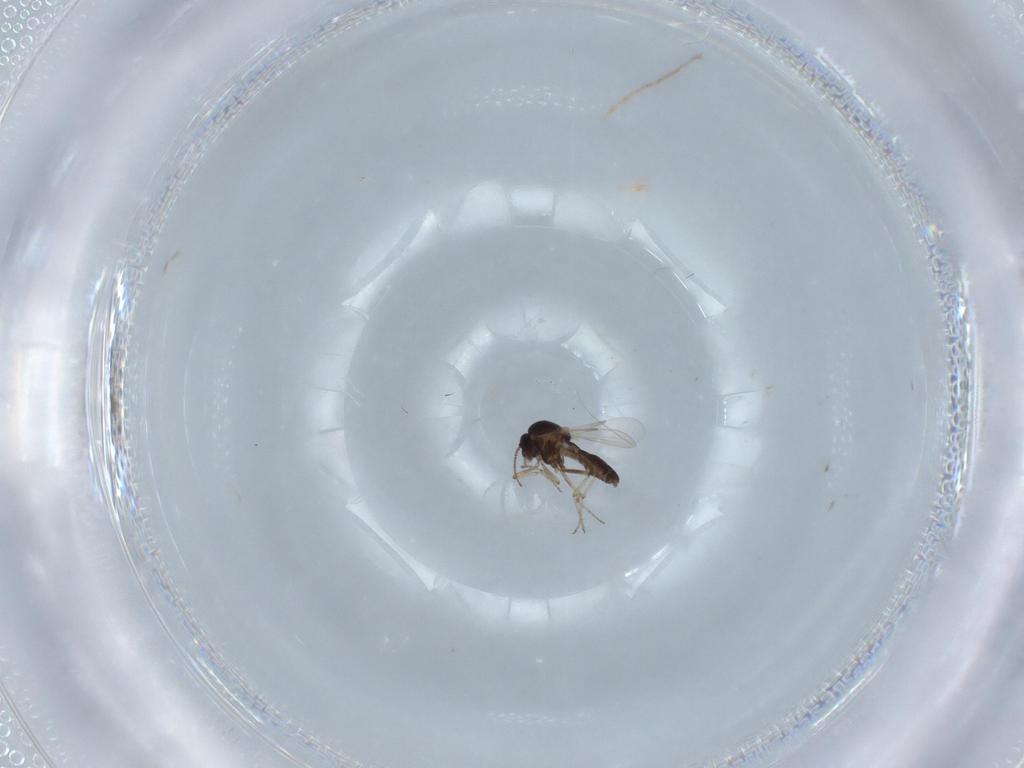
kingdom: Animalia
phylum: Arthropoda
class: Insecta
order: Diptera
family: Ceratopogonidae
